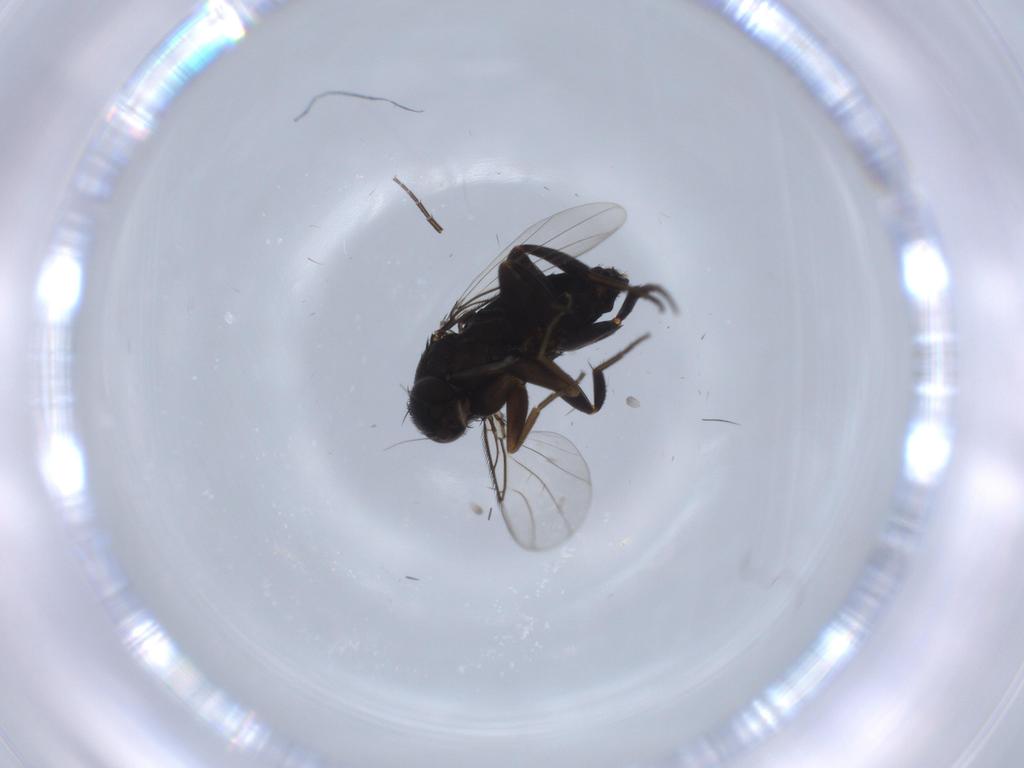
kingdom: Animalia
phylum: Arthropoda
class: Insecta
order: Diptera
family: Phoridae
